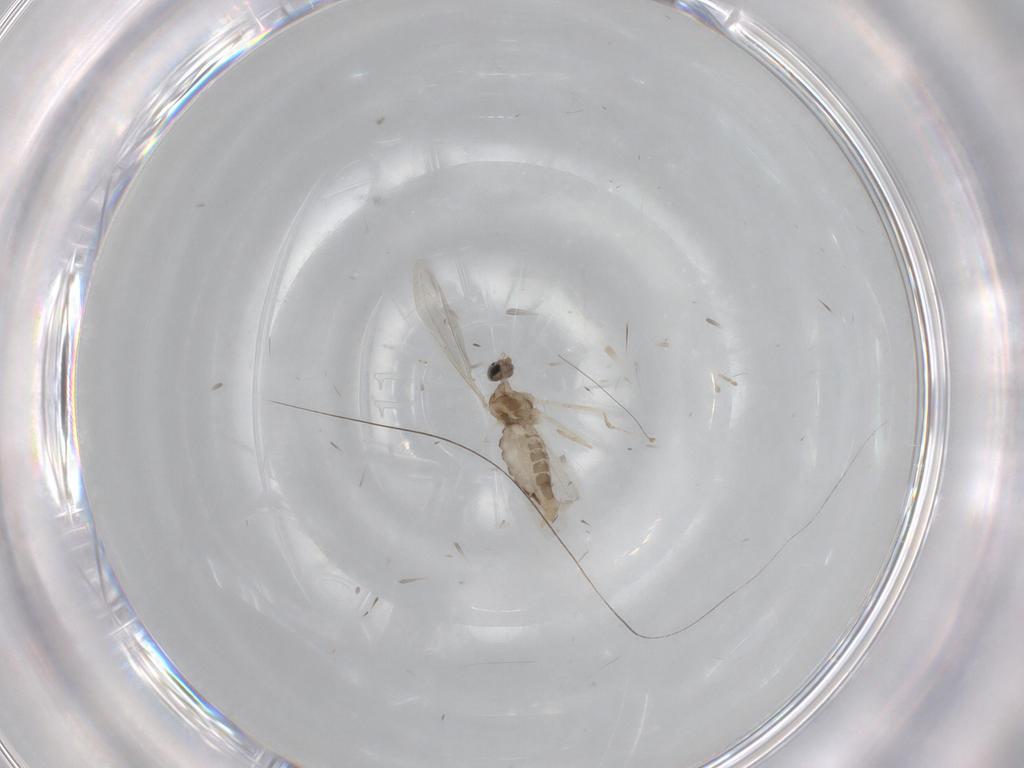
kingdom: Animalia
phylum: Arthropoda
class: Insecta
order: Diptera
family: Cecidomyiidae
